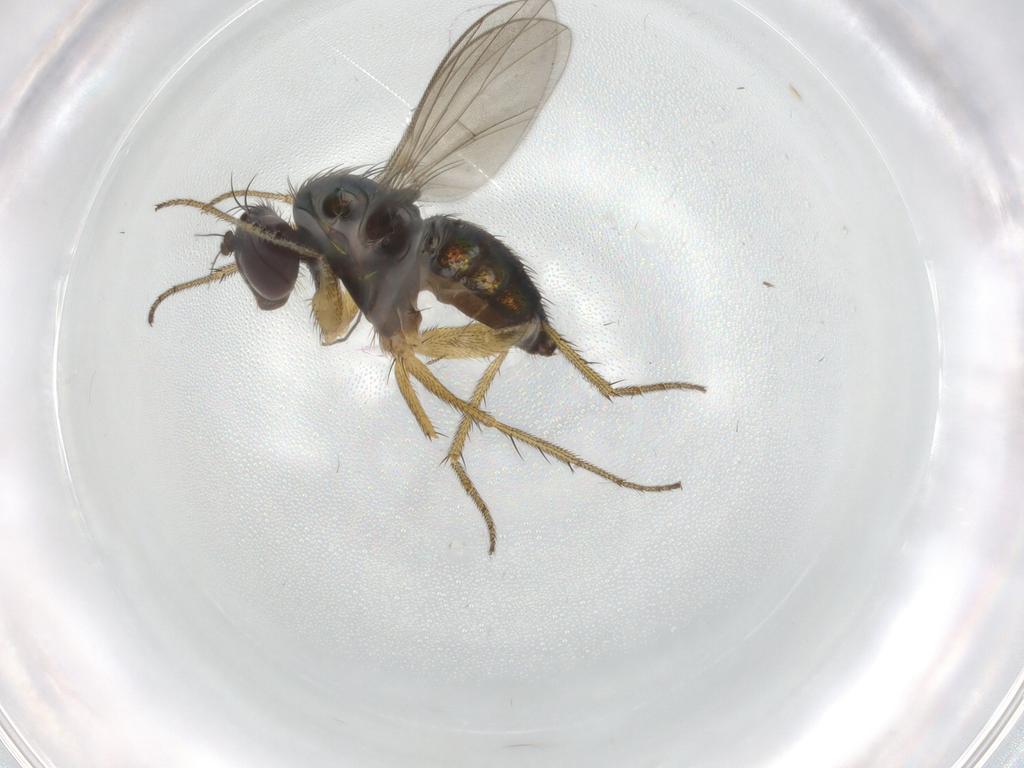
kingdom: Animalia
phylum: Arthropoda
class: Insecta
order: Diptera
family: Chironomidae
